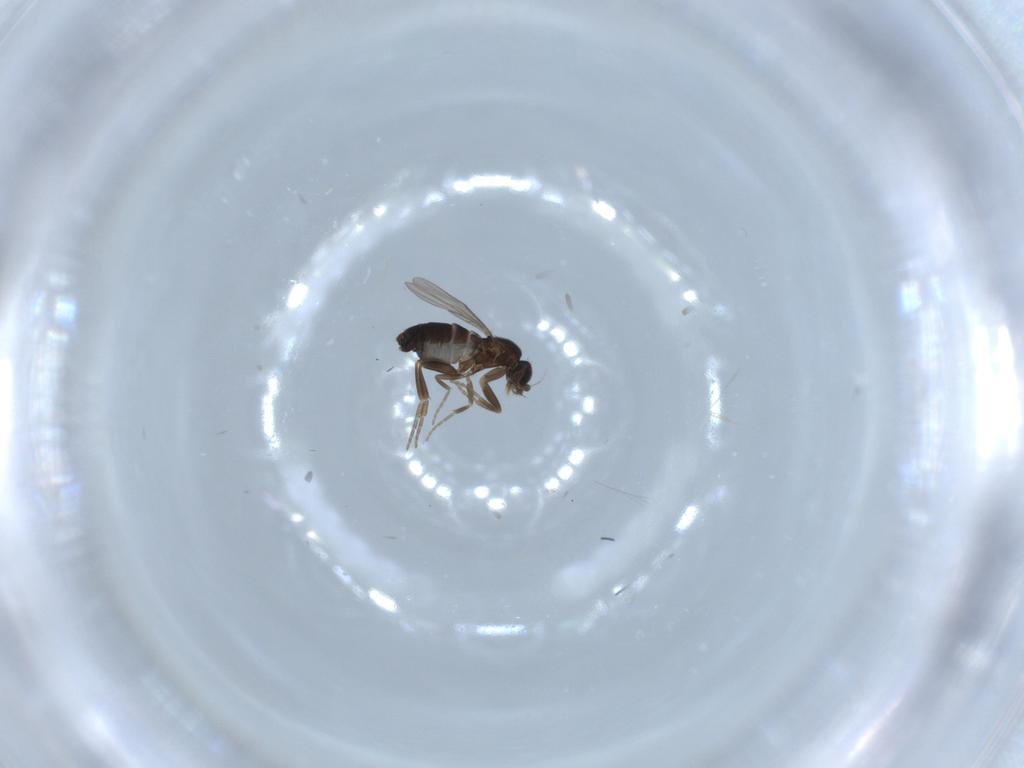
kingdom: Animalia
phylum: Arthropoda
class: Insecta
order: Diptera
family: Phoridae
